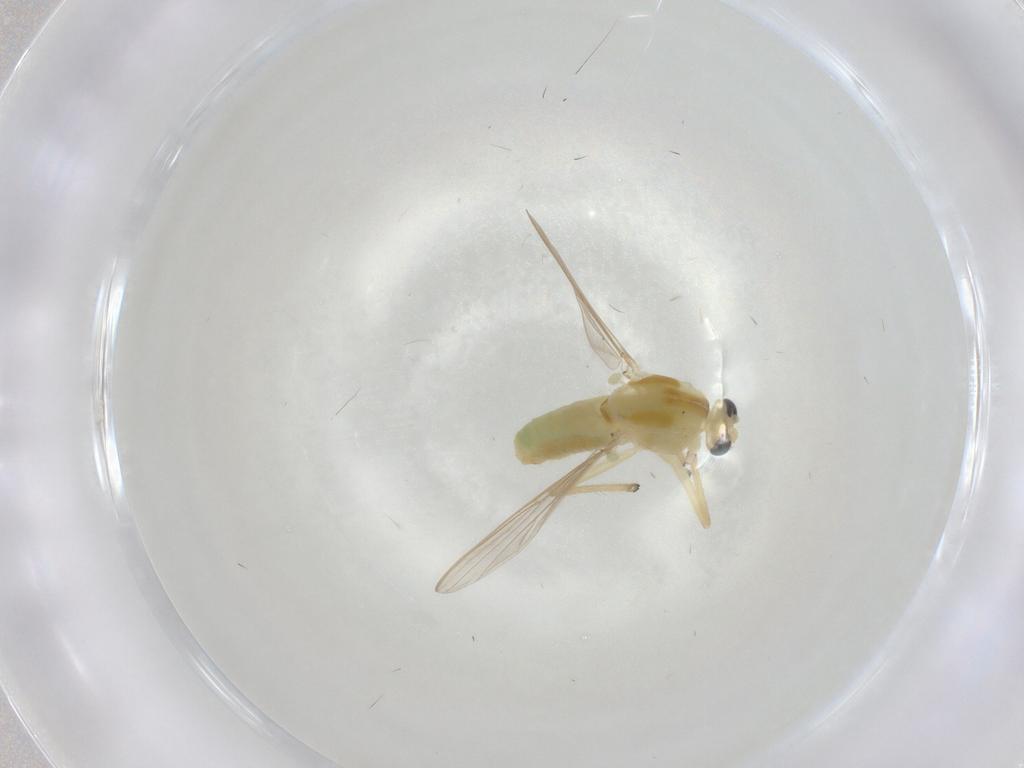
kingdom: Animalia
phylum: Arthropoda
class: Insecta
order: Diptera
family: Chironomidae
